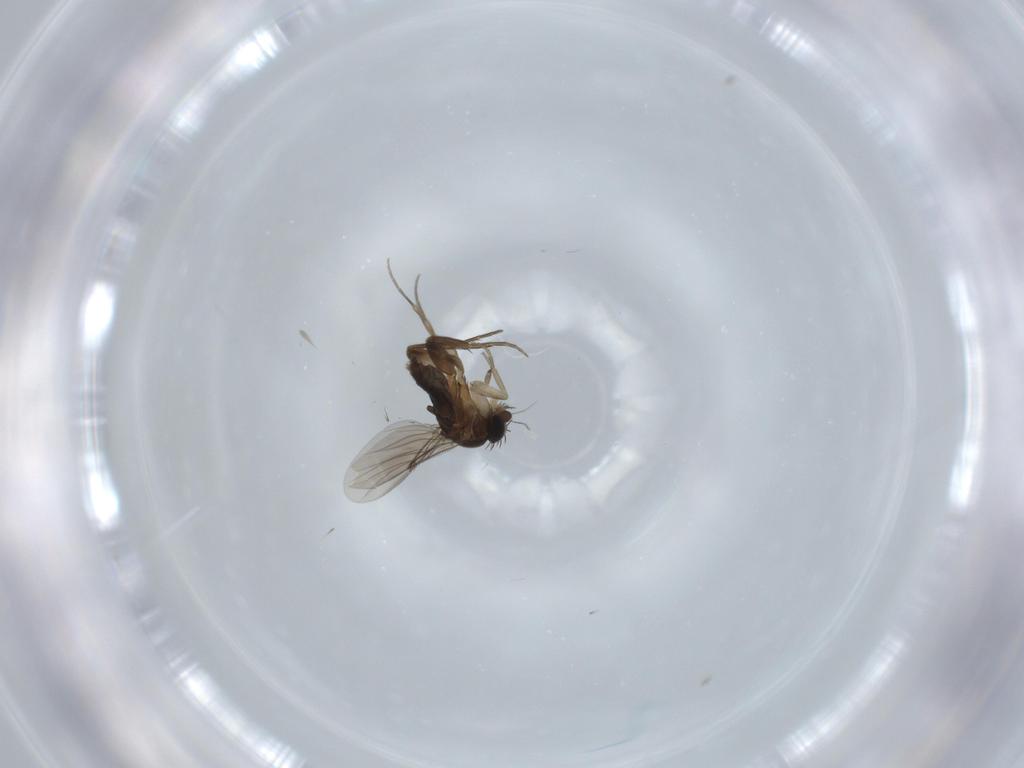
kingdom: Animalia
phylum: Arthropoda
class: Insecta
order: Diptera
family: Phoridae
